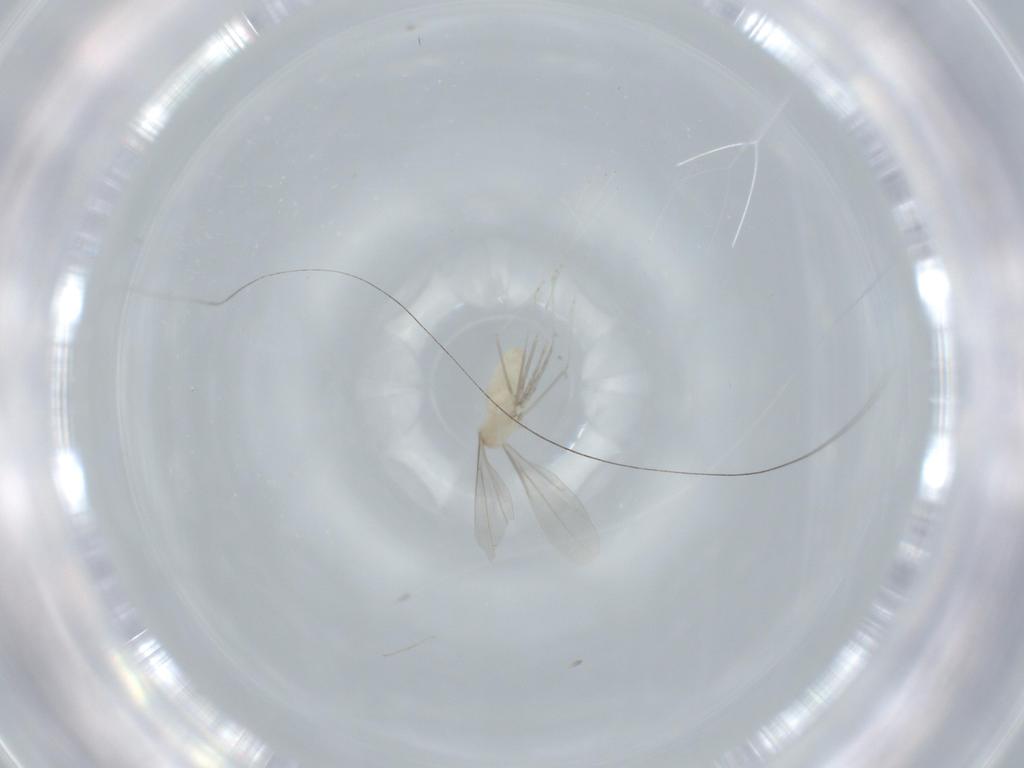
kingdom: Animalia
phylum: Arthropoda
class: Insecta
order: Diptera
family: Cecidomyiidae
